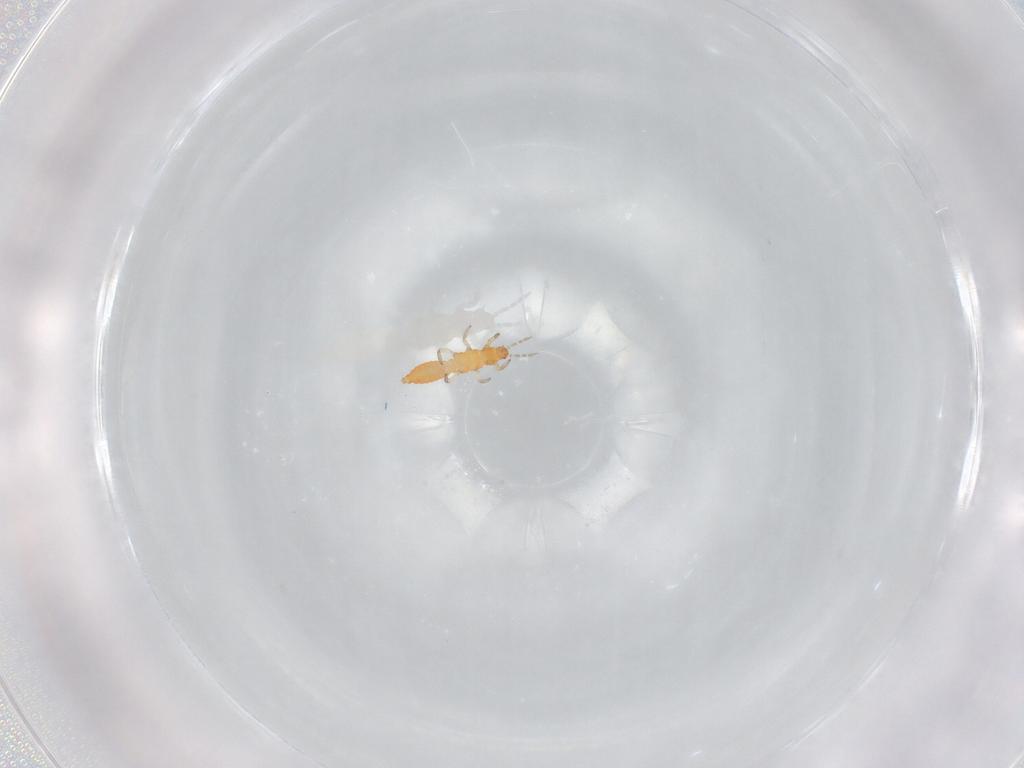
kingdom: Animalia
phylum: Arthropoda
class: Insecta
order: Thysanoptera
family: Aeolothripidae
